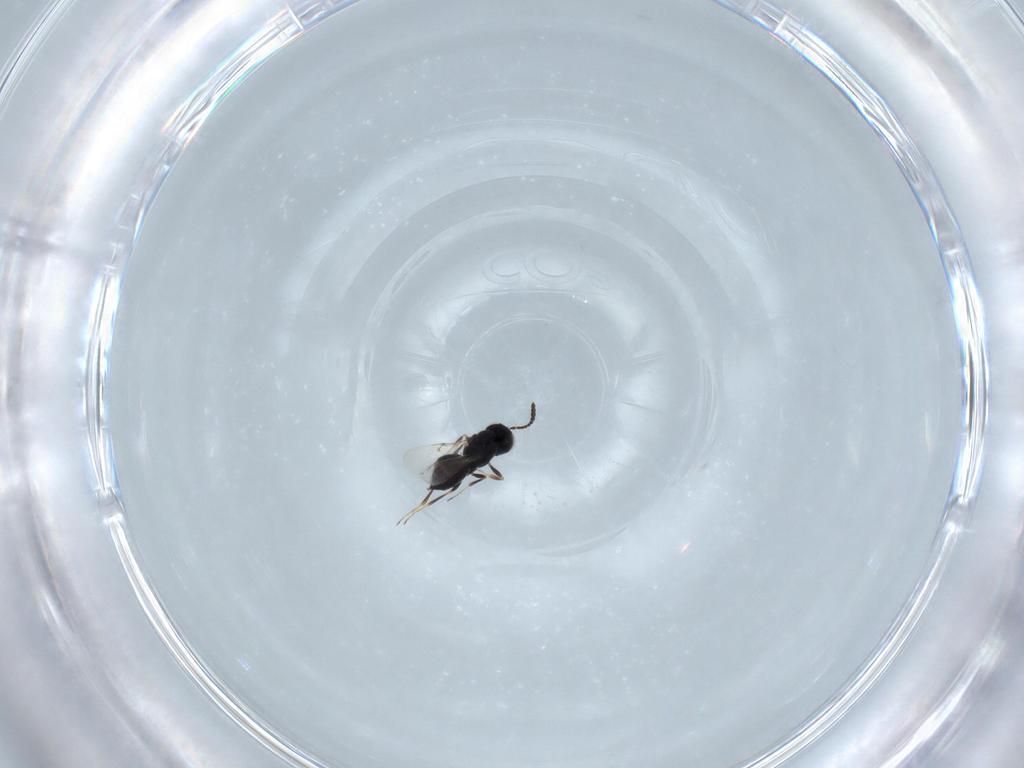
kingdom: Animalia
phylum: Arthropoda
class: Insecta
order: Hymenoptera
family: Scelionidae
